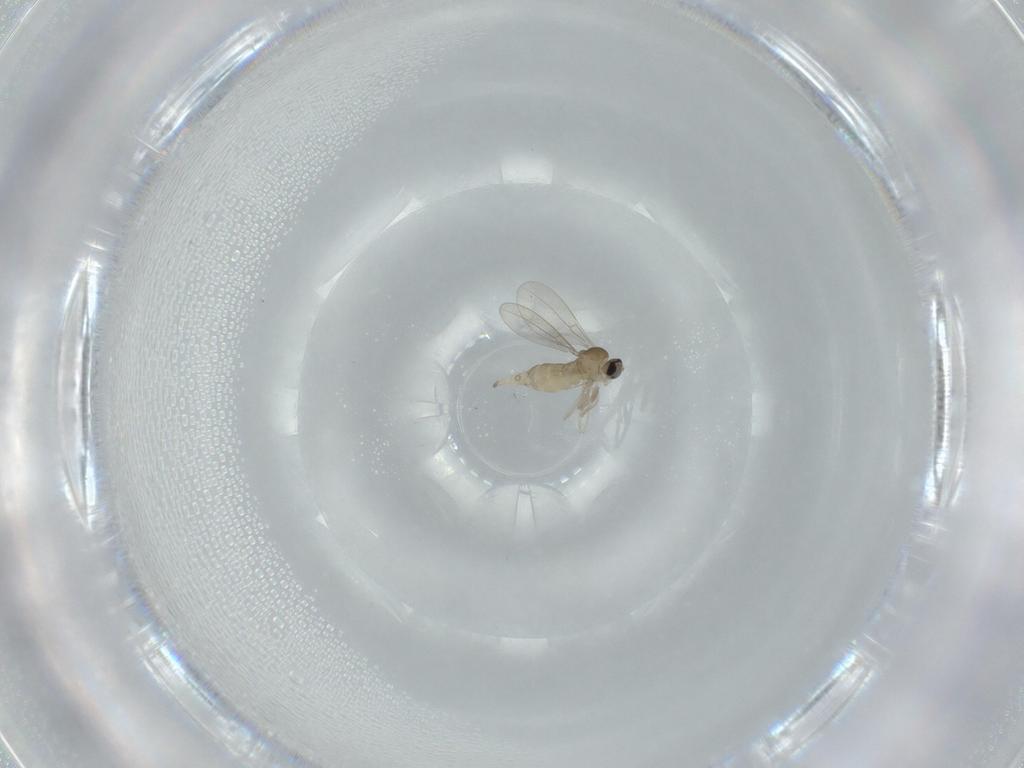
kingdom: Animalia
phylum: Arthropoda
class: Insecta
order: Diptera
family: Cecidomyiidae
